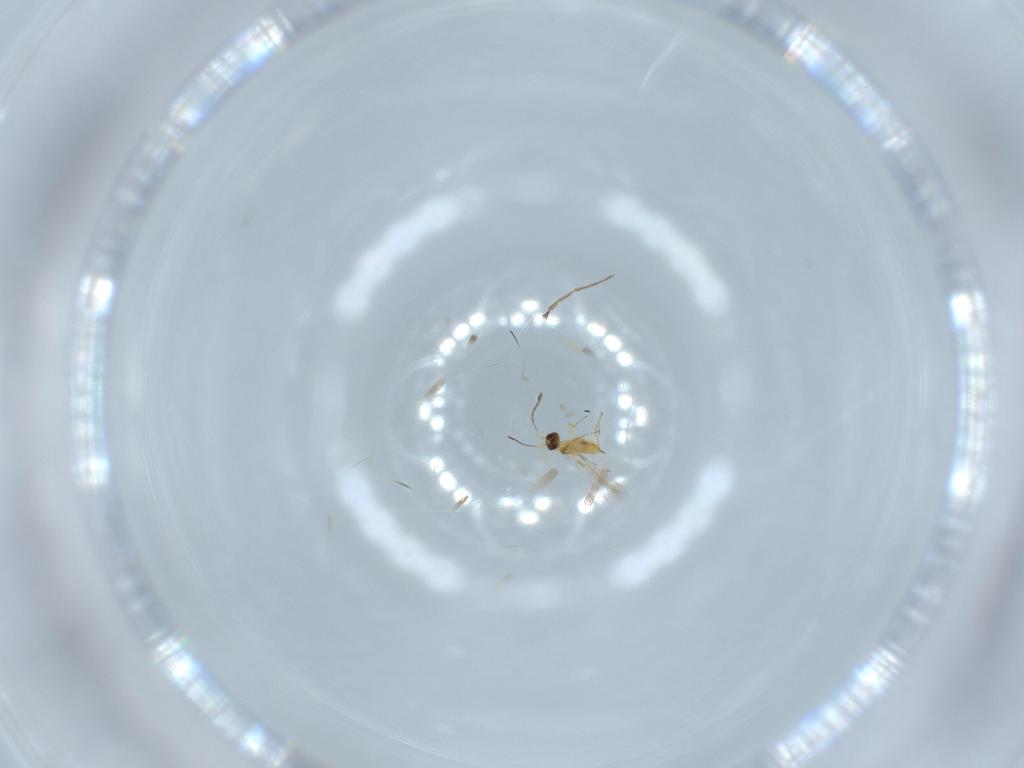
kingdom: Animalia
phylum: Arthropoda
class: Insecta
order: Hymenoptera
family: Mymaridae
